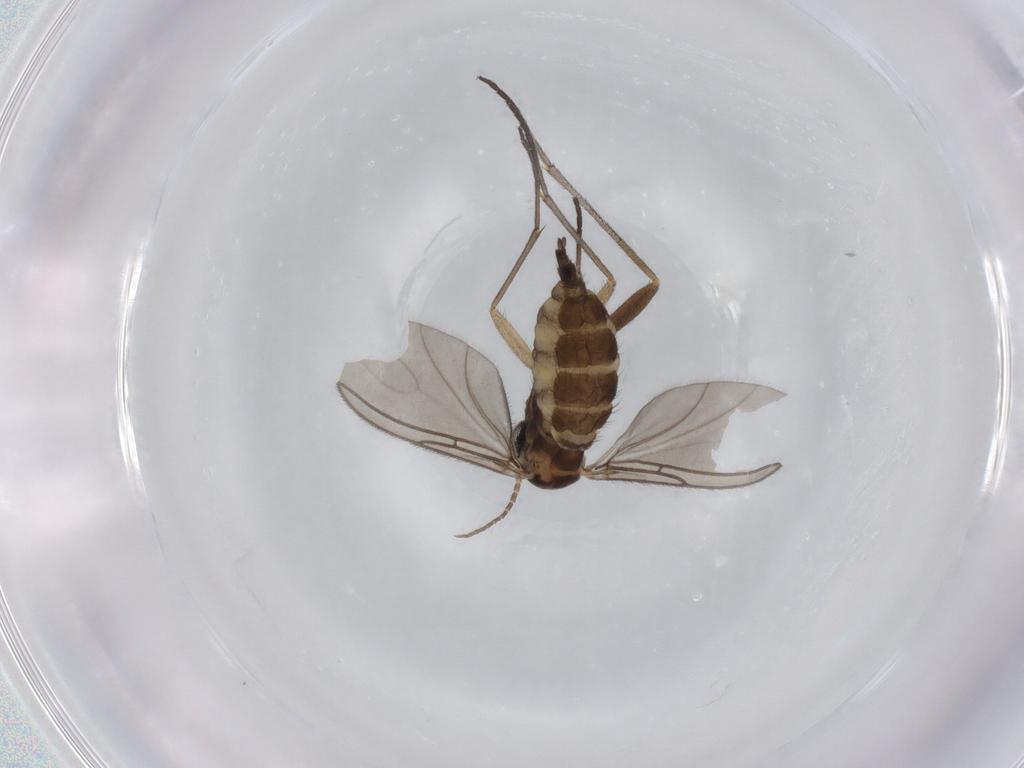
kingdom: Animalia
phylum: Arthropoda
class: Insecta
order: Diptera
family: Sciaridae
